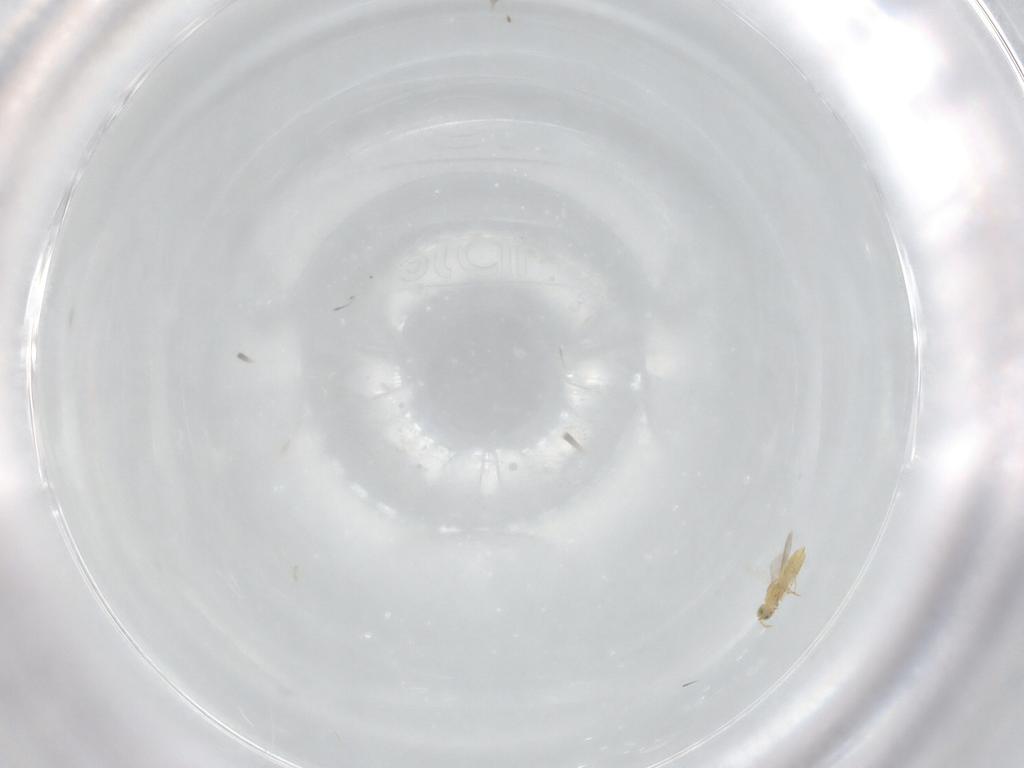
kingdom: Animalia
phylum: Arthropoda
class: Insecta
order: Hymenoptera
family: Aphelinidae
